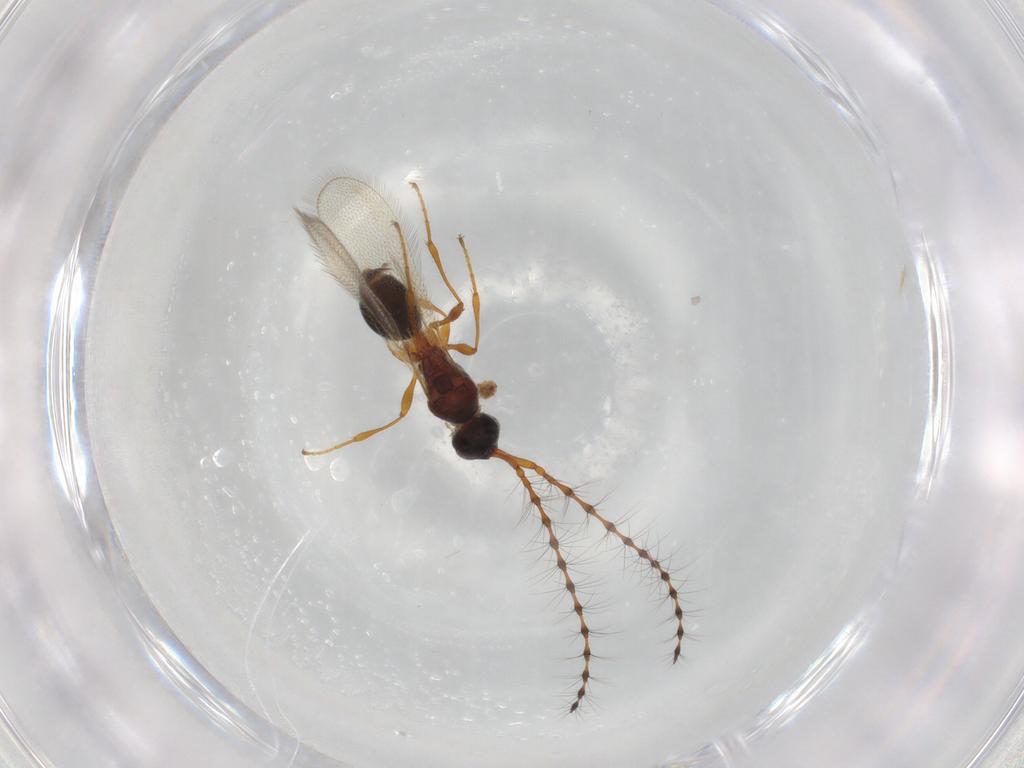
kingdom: Animalia
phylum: Arthropoda
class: Insecta
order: Hymenoptera
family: Diapriidae
